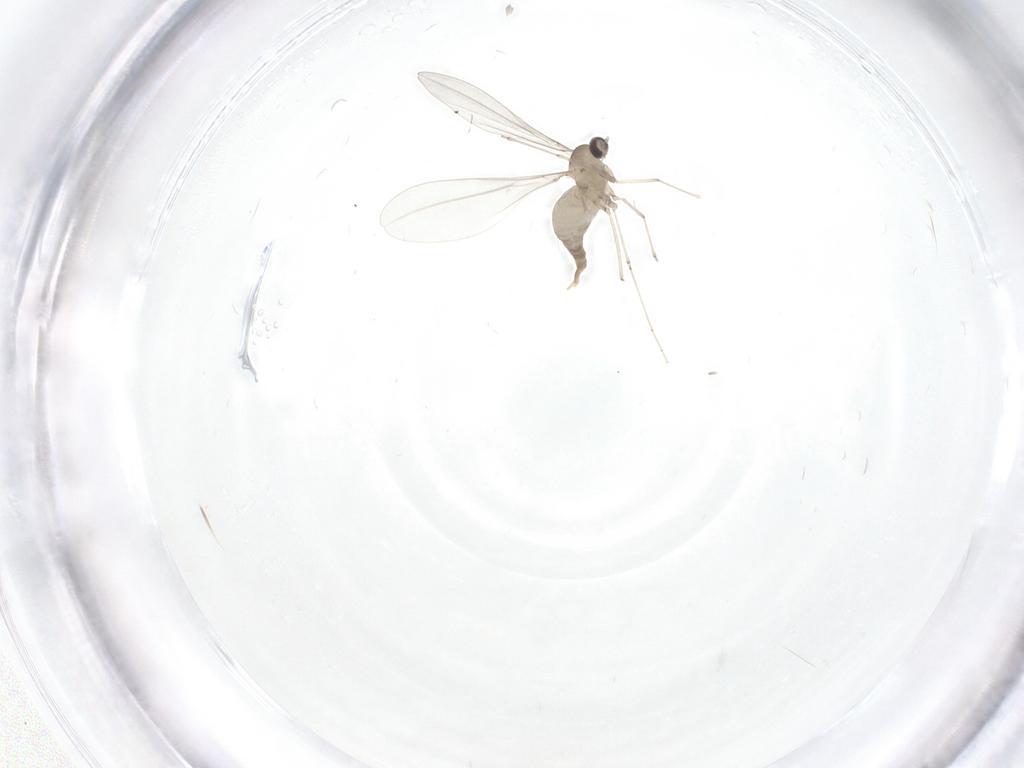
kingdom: Animalia
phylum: Arthropoda
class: Insecta
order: Diptera
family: Cecidomyiidae
